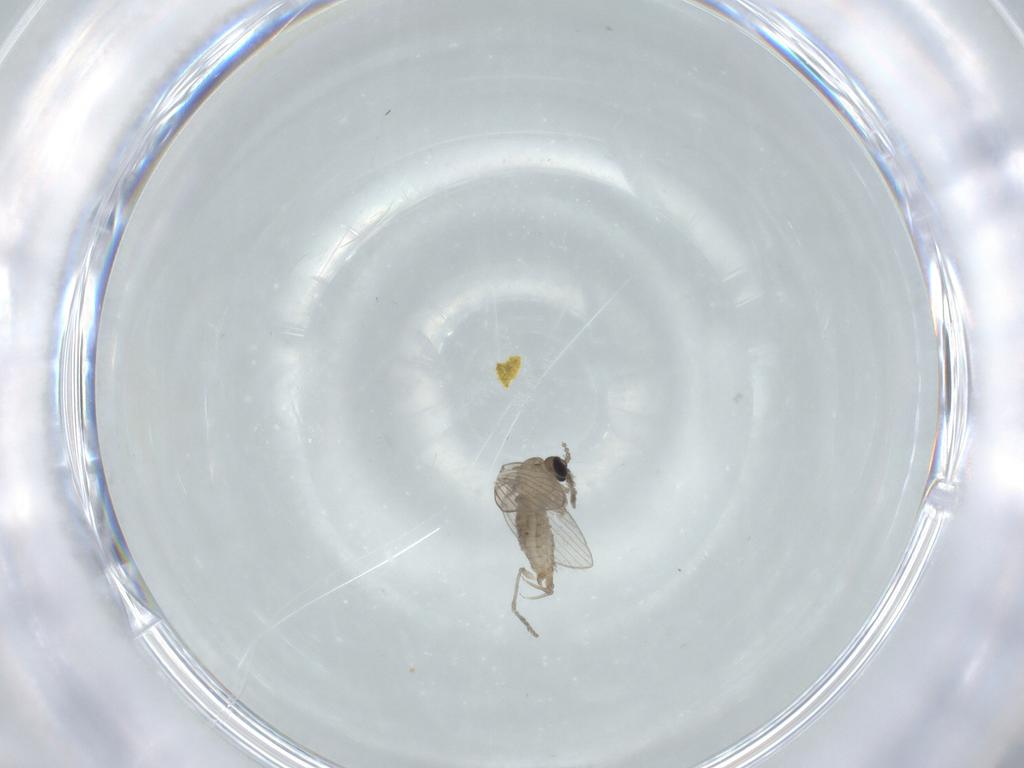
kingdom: Animalia
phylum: Arthropoda
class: Insecta
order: Diptera
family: Psychodidae
